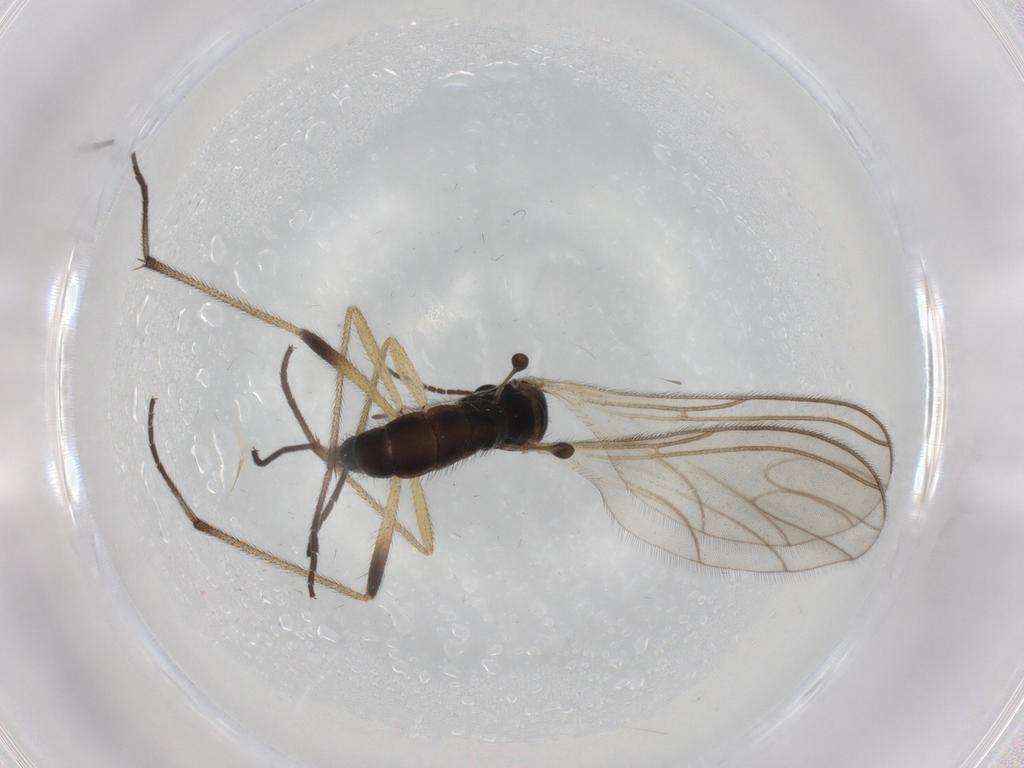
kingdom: Animalia
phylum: Arthropoda
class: Insecta
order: Diptera
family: Sciaridae
